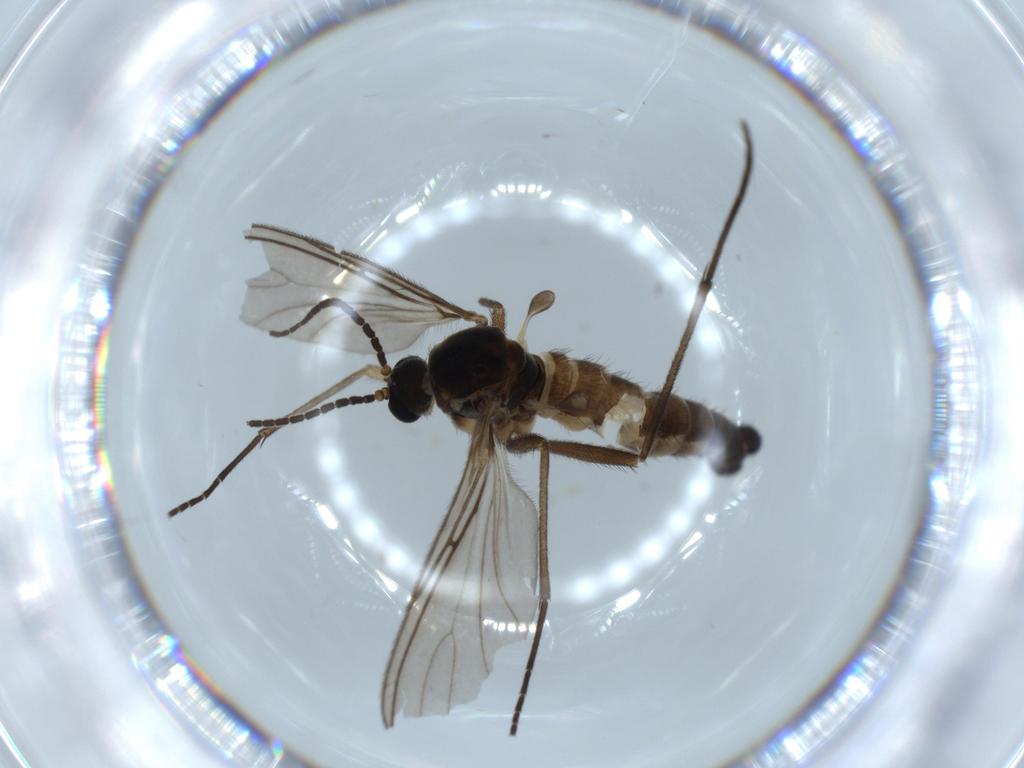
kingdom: Animalia
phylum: Arthropoda
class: Insecta
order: Diptera
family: Sciaridae
